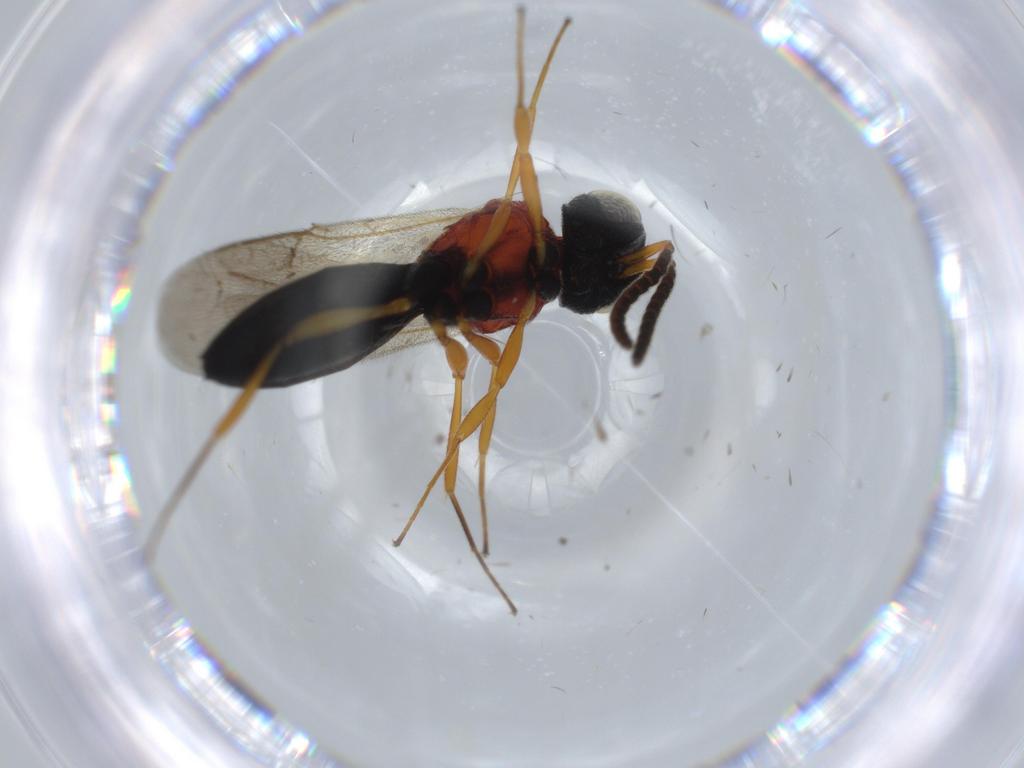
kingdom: Animalia
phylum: Arthropoda
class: Insecta
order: Hymenoptera
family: Scelionidae
